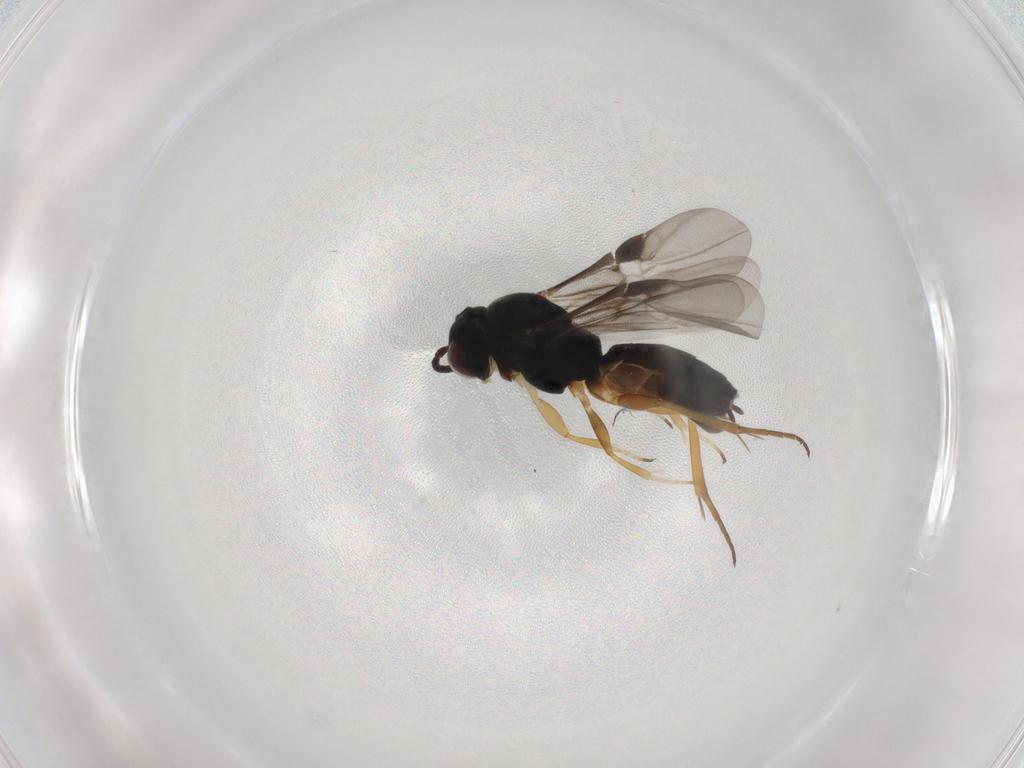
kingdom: Animalia
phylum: Arthropoda
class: Insecta
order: Hymenoptera
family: Braconidae
